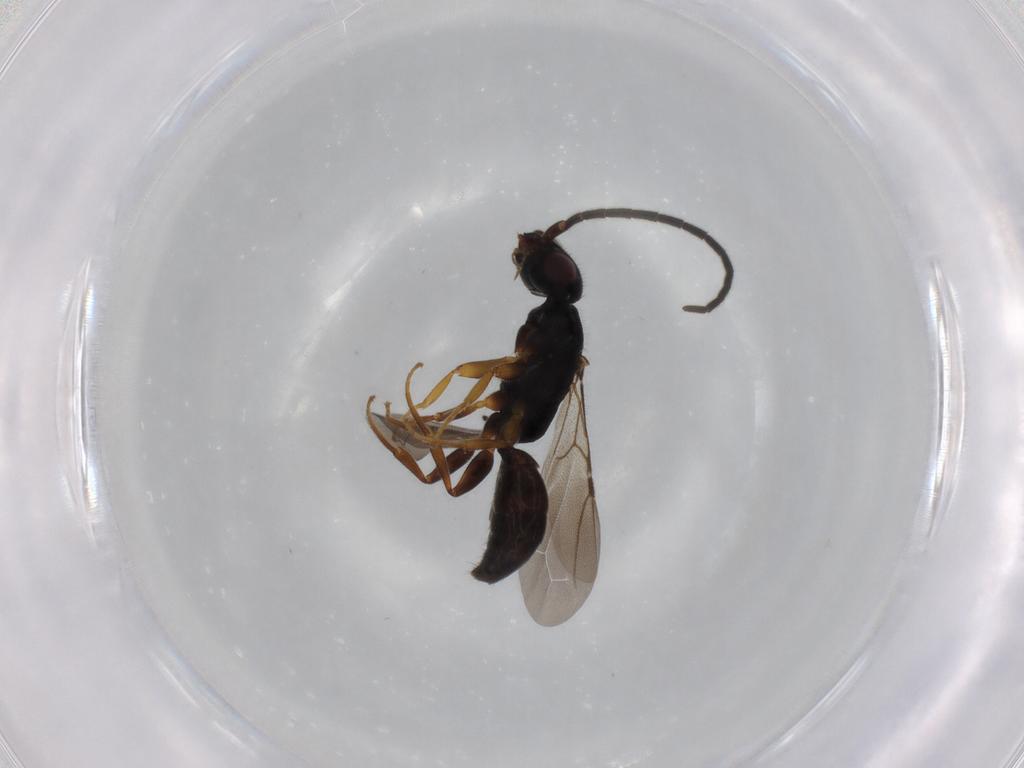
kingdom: Animalia
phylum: Arthropoda
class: Insecta
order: Hymenoptera
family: Bethylidae
